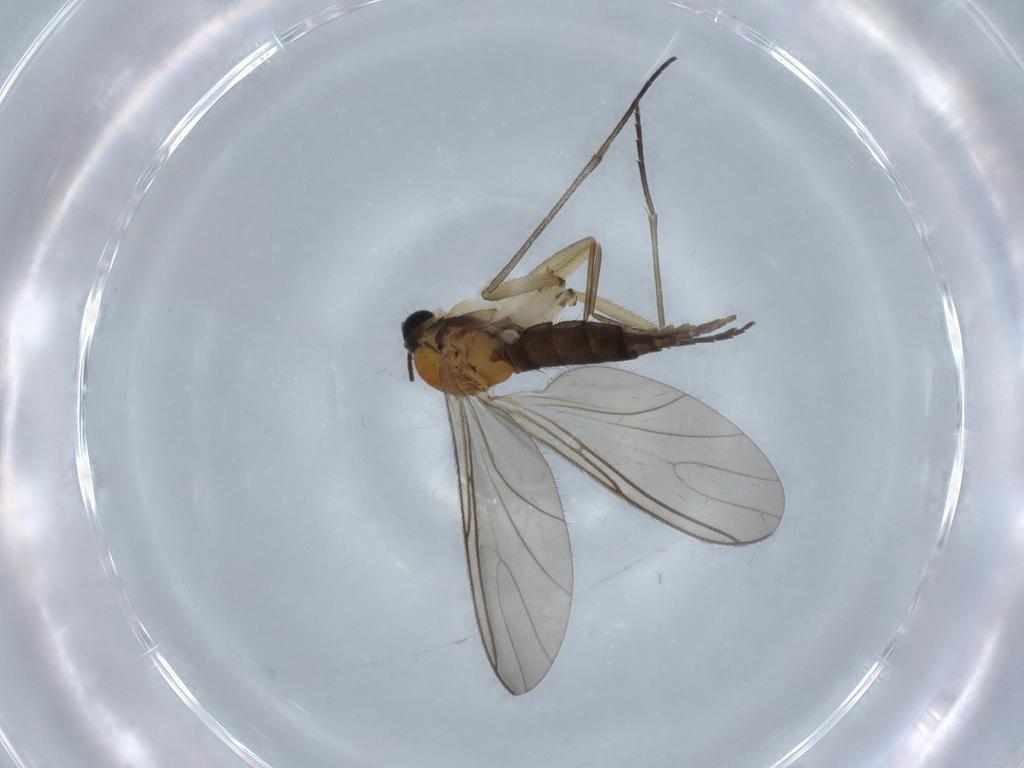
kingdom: Animalia
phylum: Arthropoda
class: Insecta
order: Diptera
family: Sciaridae
